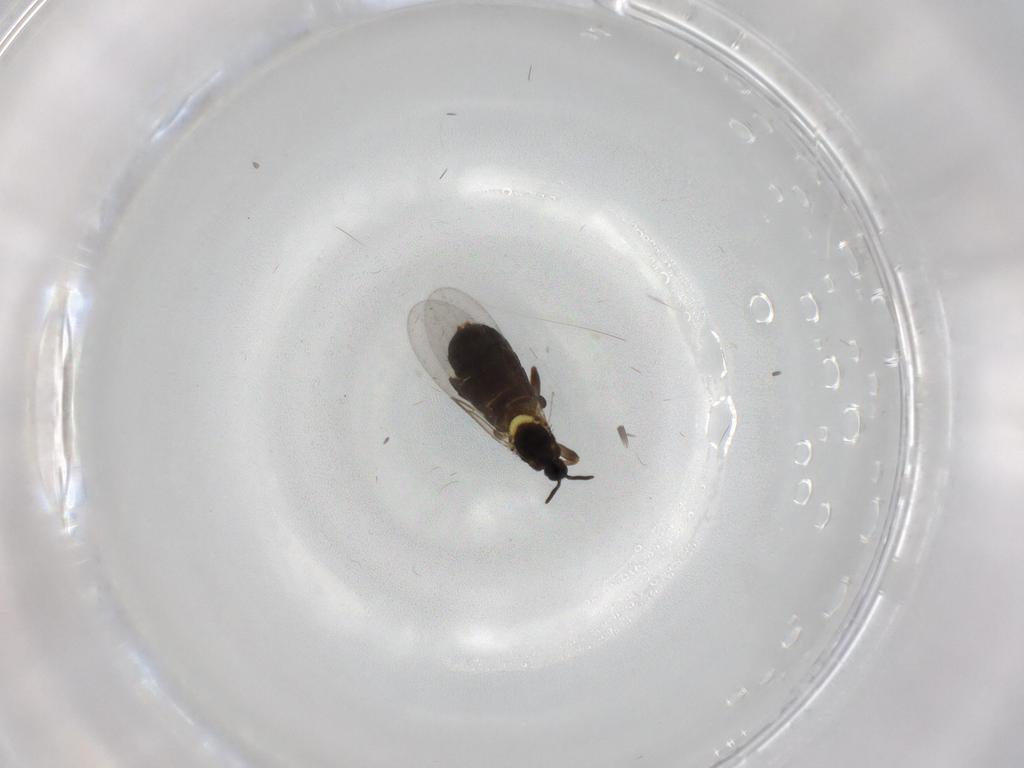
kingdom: Animalia
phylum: Arthropoda
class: Insecta
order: Diptera
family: Scatopsidae
